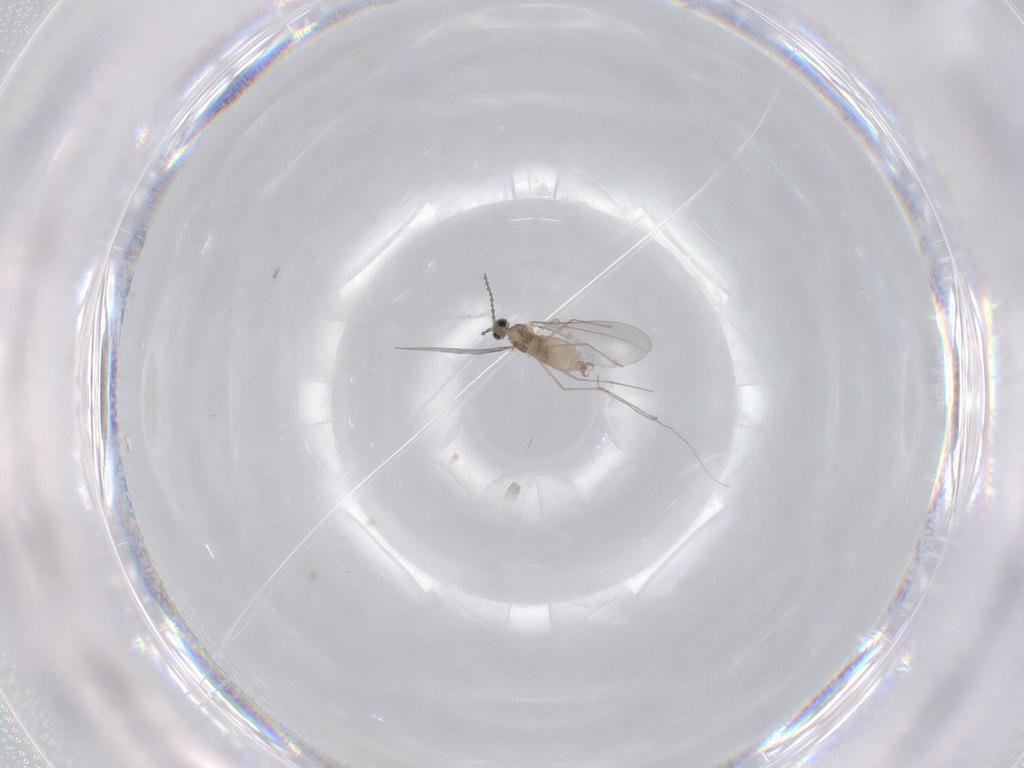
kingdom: Animalia
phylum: Arthropoda
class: Insecta
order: Diptera
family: Cecidomyiidae
